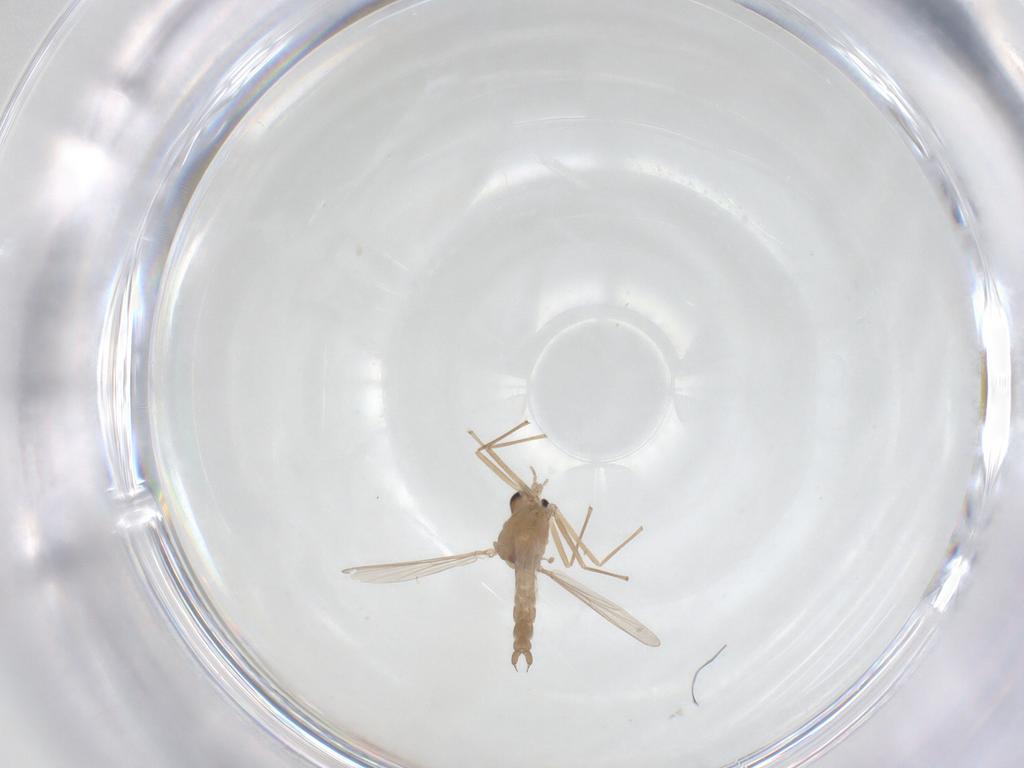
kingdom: Animalia
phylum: Arthropoda
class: Insecta
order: Diptera
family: Chironomidae
